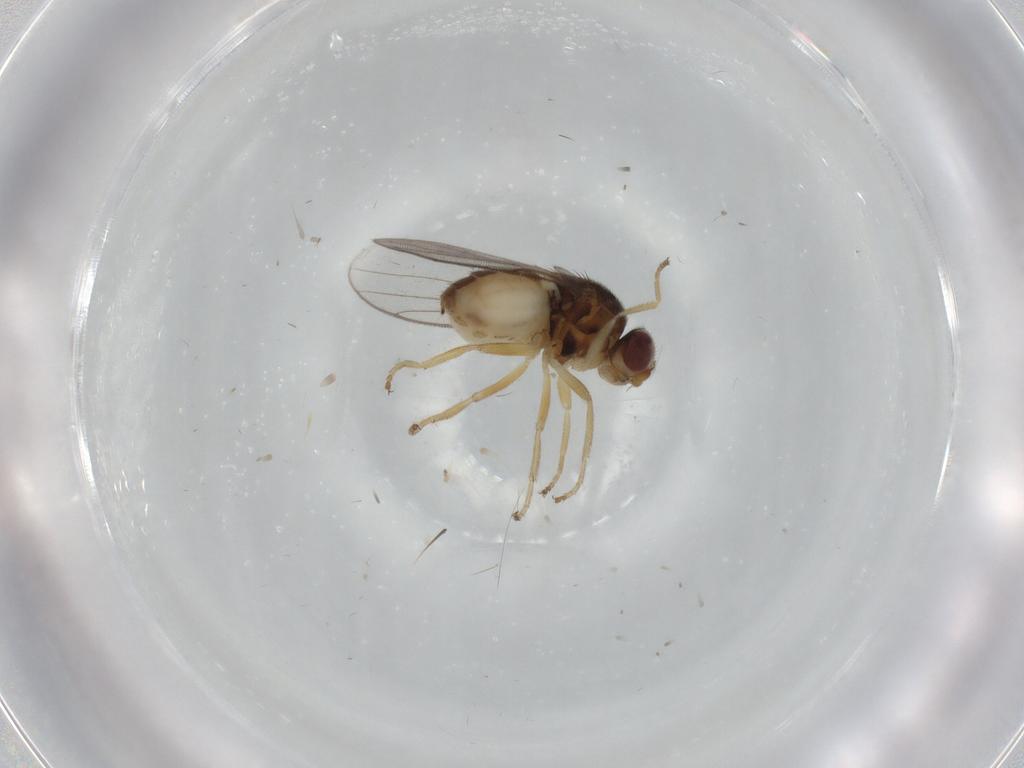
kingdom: Animalia
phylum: Arthropoda
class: Insecta
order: Diptera
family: Chloropidae
